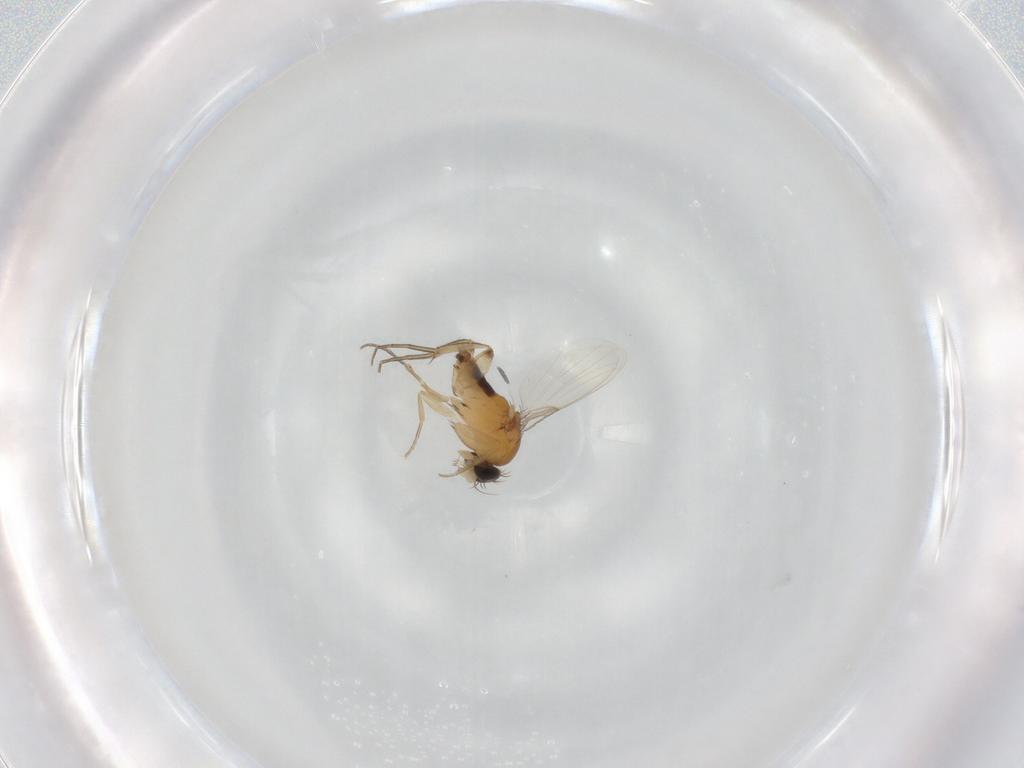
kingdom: Animalia
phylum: Arthropoda
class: Insecta
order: Diptera
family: Phoridae
